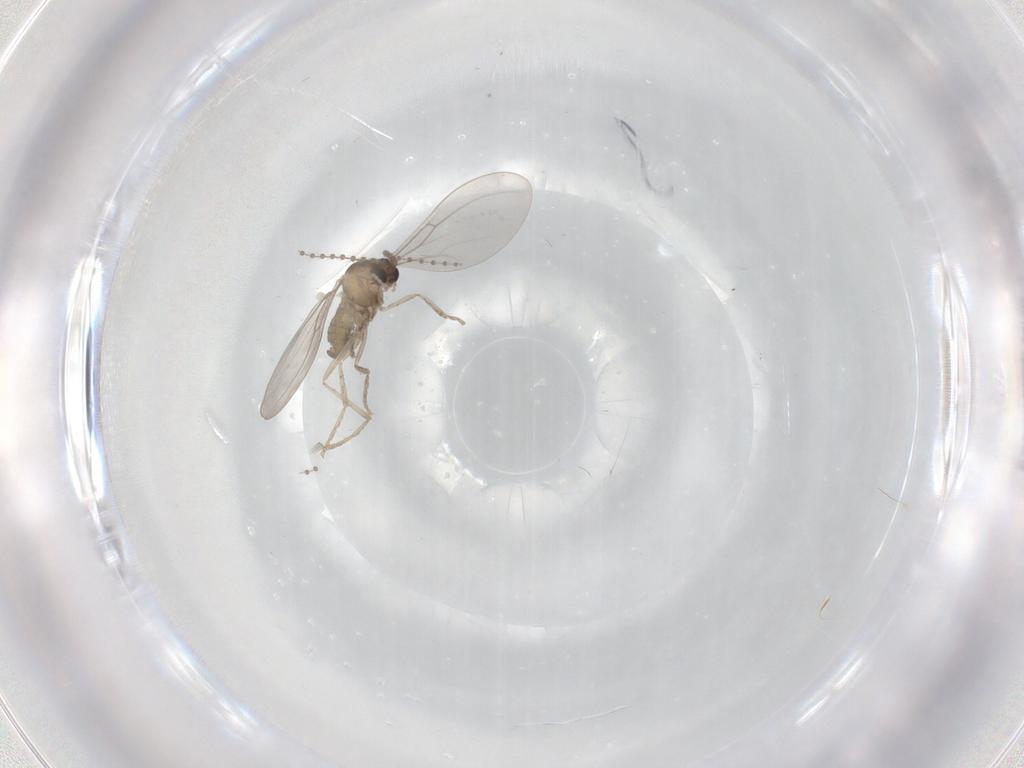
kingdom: Animalia
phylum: Arthropoda
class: Insecta
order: Diptera
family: Cecidomyiidae
